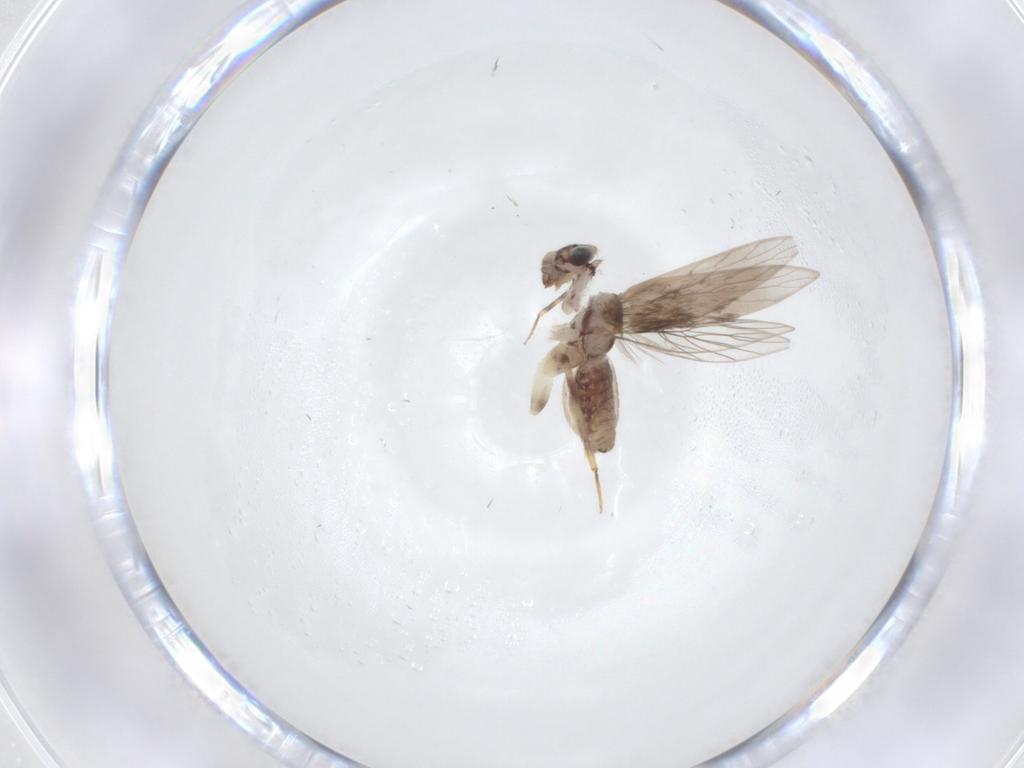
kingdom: Animalia
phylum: Arthropoda
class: Insecta
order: Psocodea
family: Lepidopsocidae
